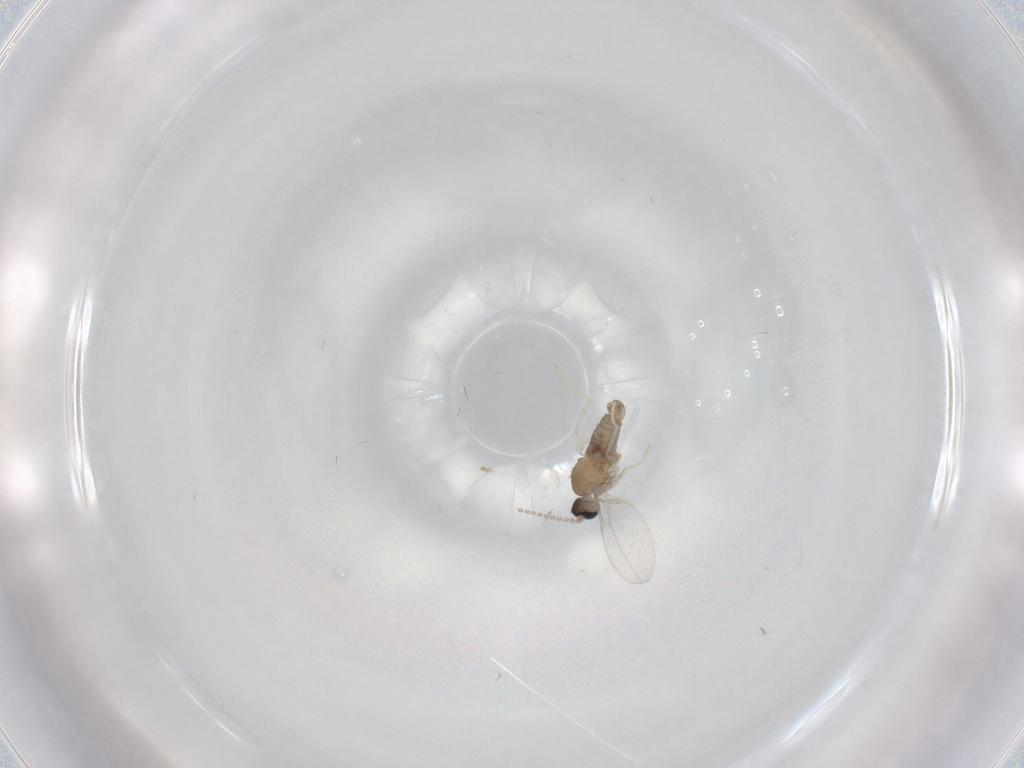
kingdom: Animalia
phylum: Arthropoda
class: Insecta
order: Diptera
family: Cecidomyiidae
